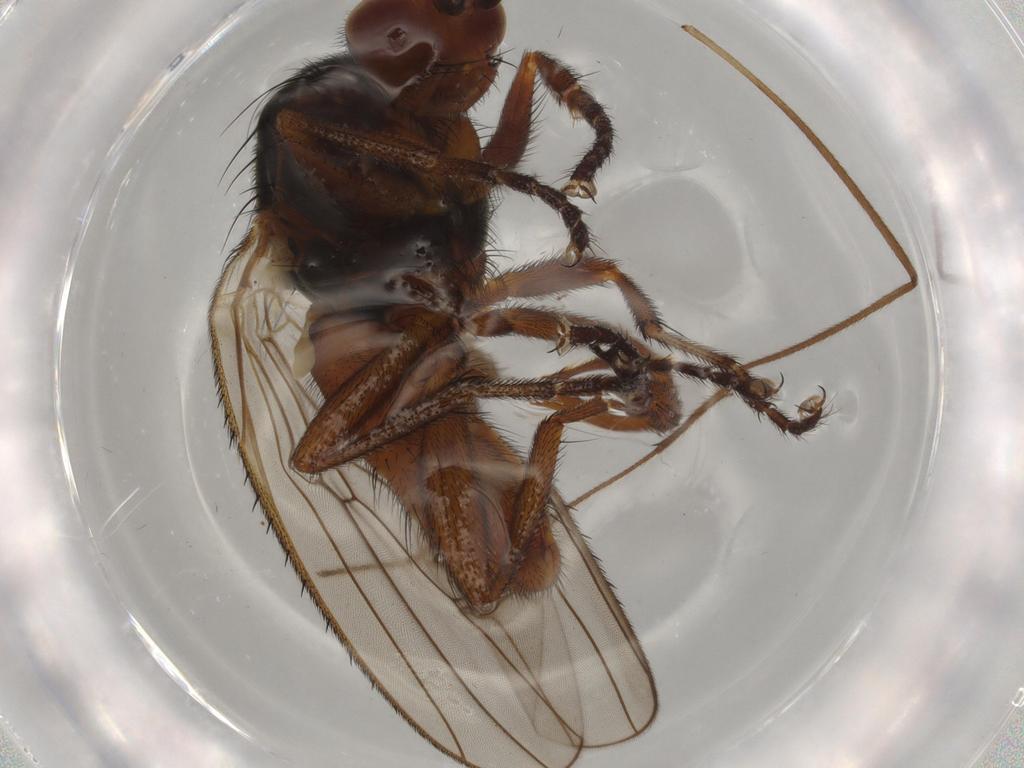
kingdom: Animalia
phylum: Arthropoda
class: Insecta
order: Diptera
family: Heleomyzidae
